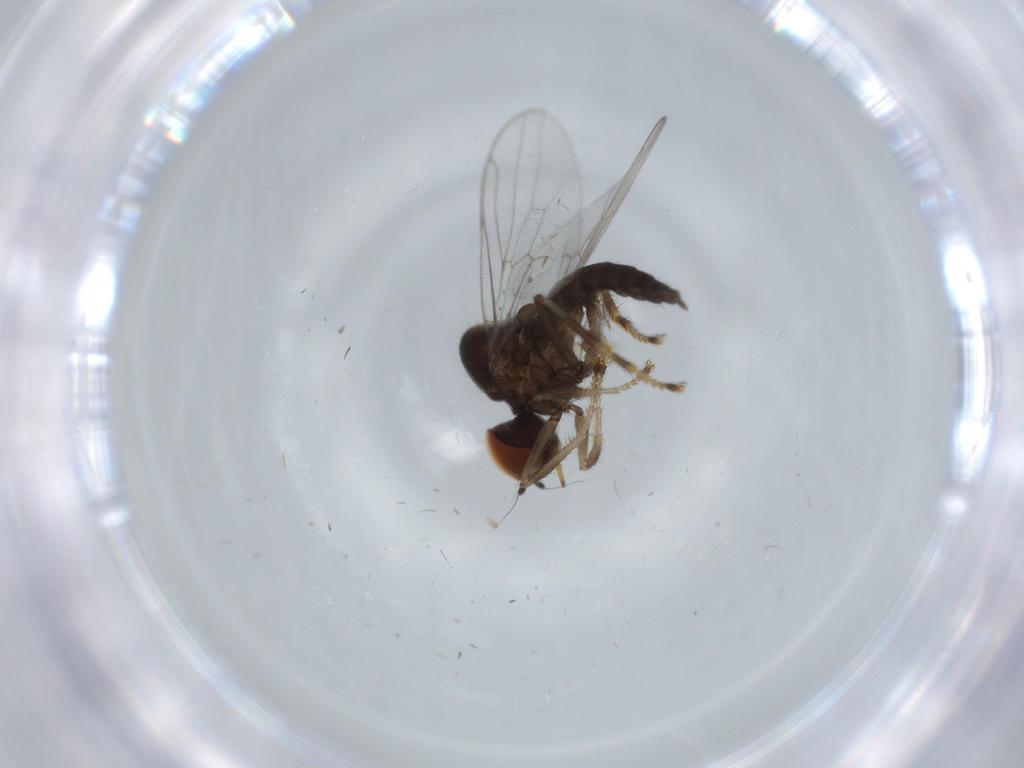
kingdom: Animalia
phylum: Arthropoda
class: Insecta
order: Diptera
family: Hybotidae
